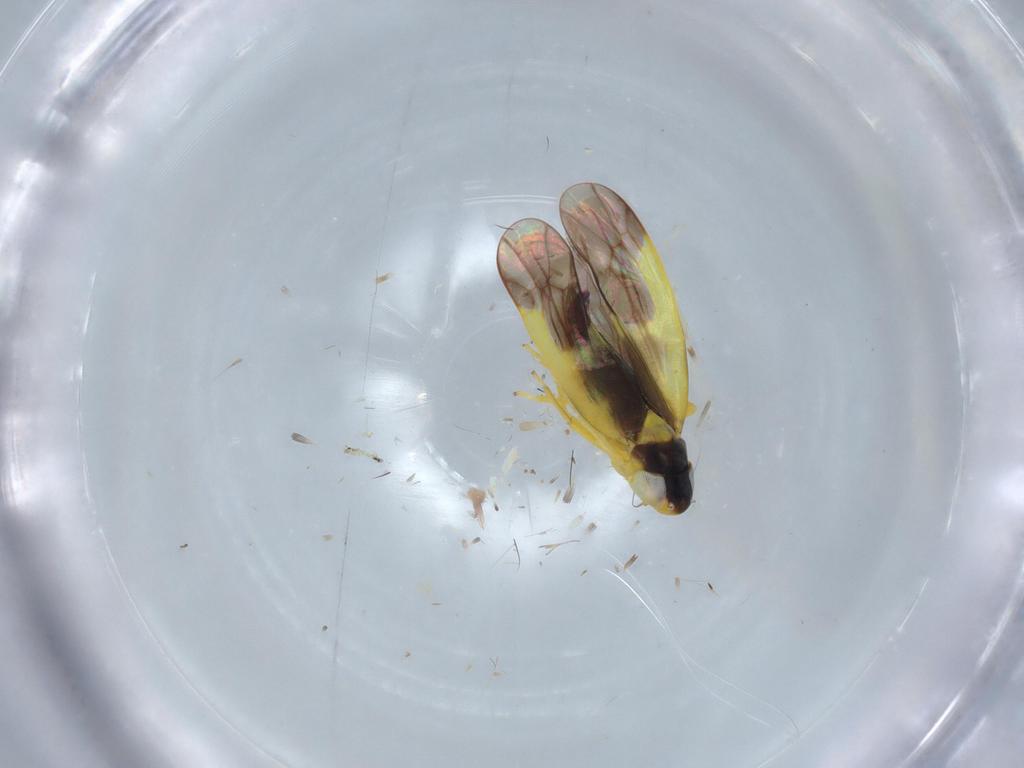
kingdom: Animalia
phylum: Arthropoda
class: Insecta
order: Hemiptera
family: Cicadellidae
